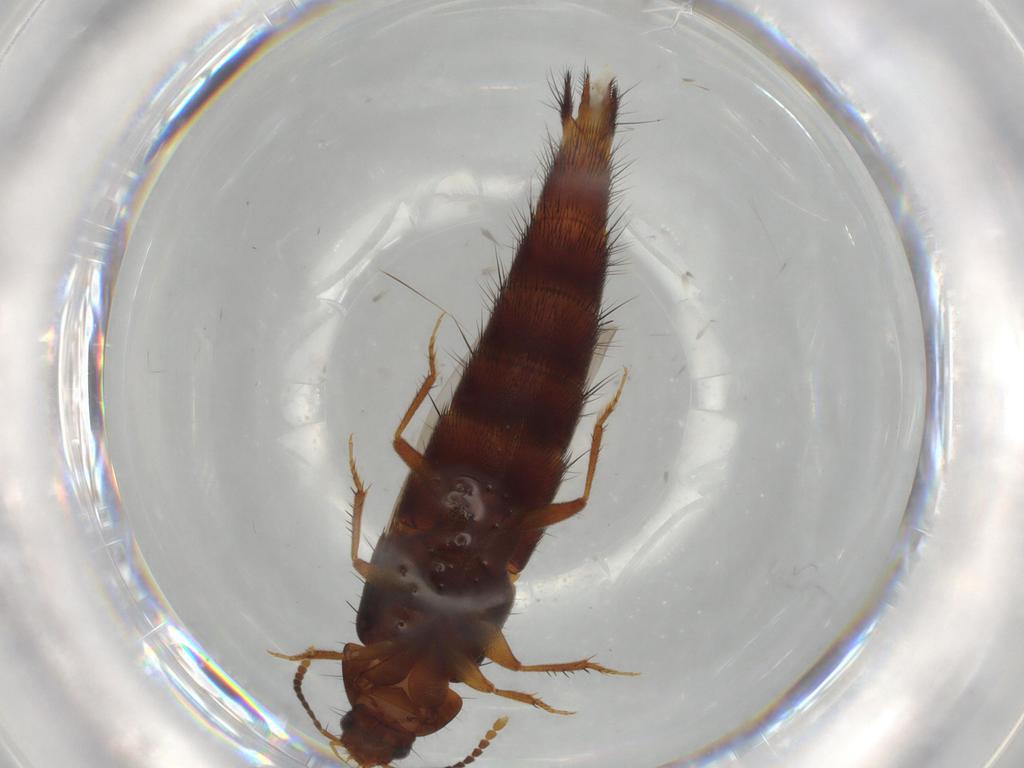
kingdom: Animalia
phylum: Arthropoda
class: Insecta
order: Coleoptera
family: Staphylinidae
